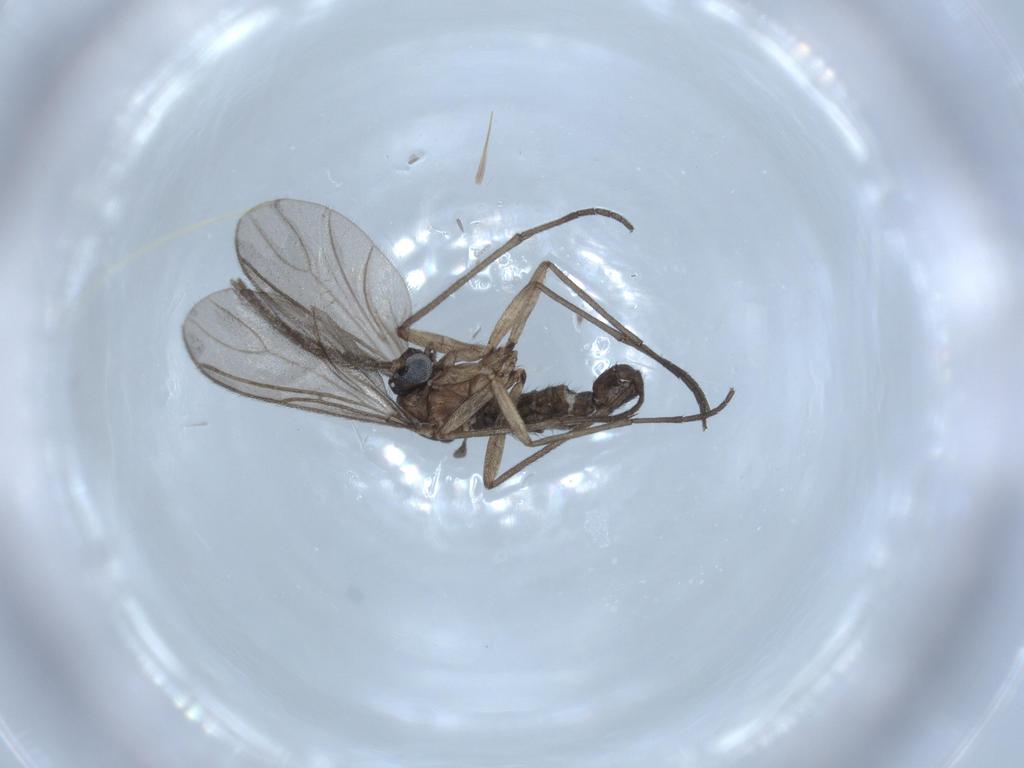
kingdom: Animalia
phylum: Arthropoda
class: Insecta
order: Diptera
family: Sciaridae
